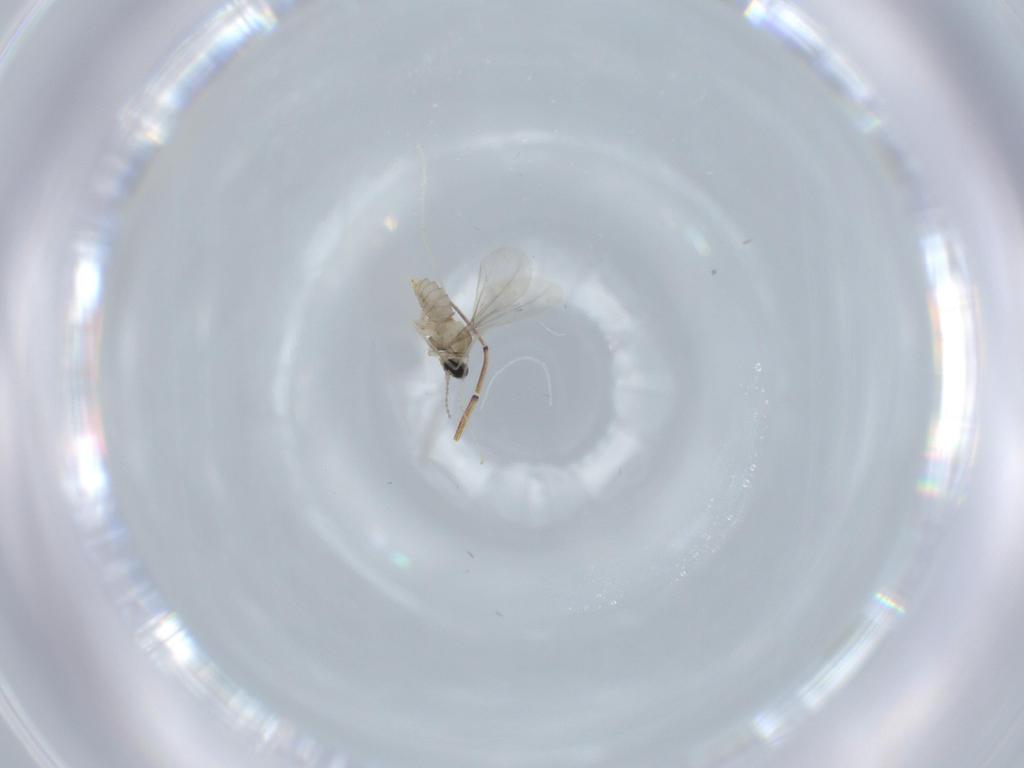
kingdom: Animalia
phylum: Arthropoda
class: Insecta
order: Diptera
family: Cecidomyiidae
